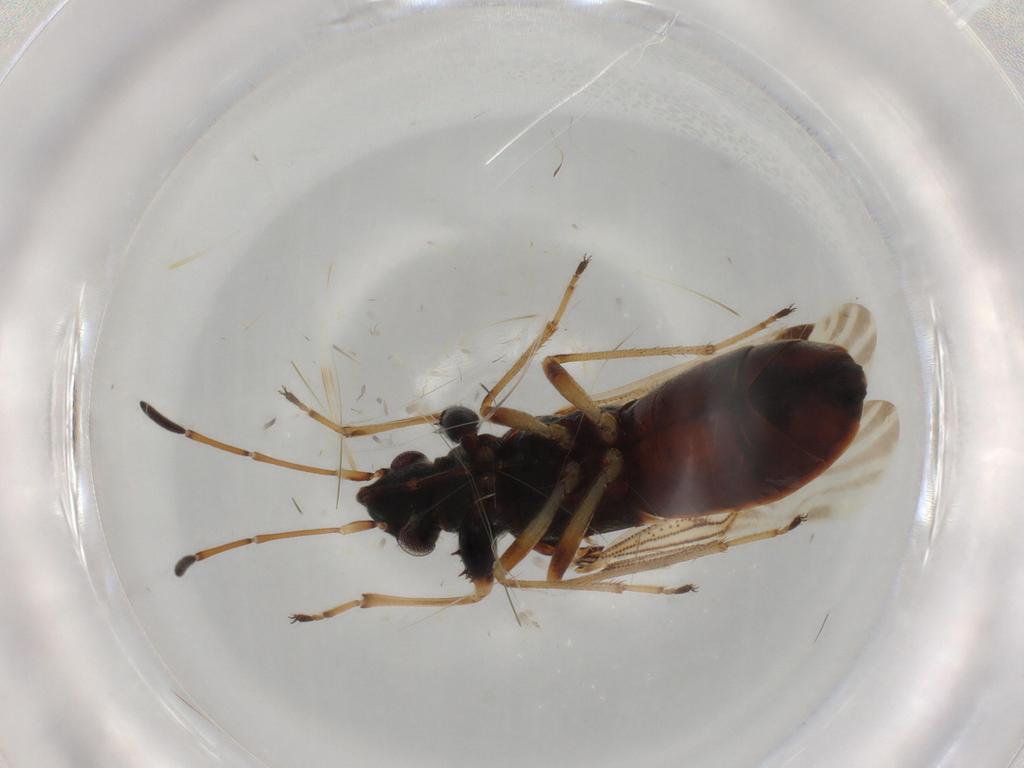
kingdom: Animalia
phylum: Arthropoda
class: Insecta
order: Hemiptera
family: Rhyparochromidae
